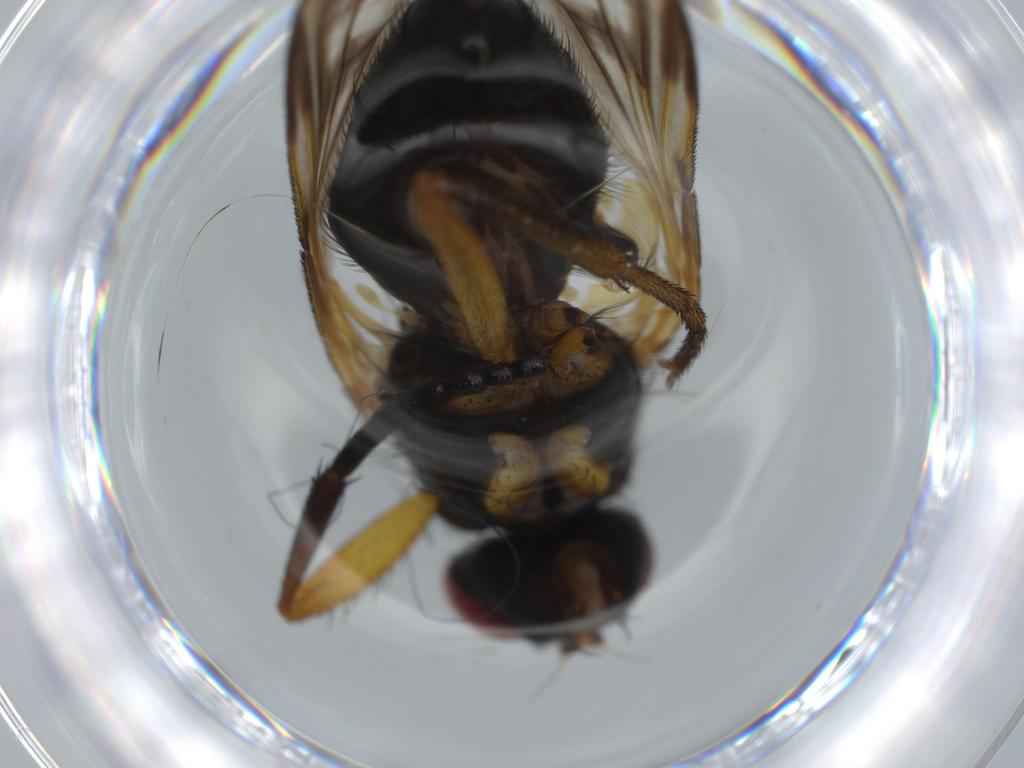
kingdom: Animalia
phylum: Arthropoda
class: Insecta
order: Diptera
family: Calliphoridae
